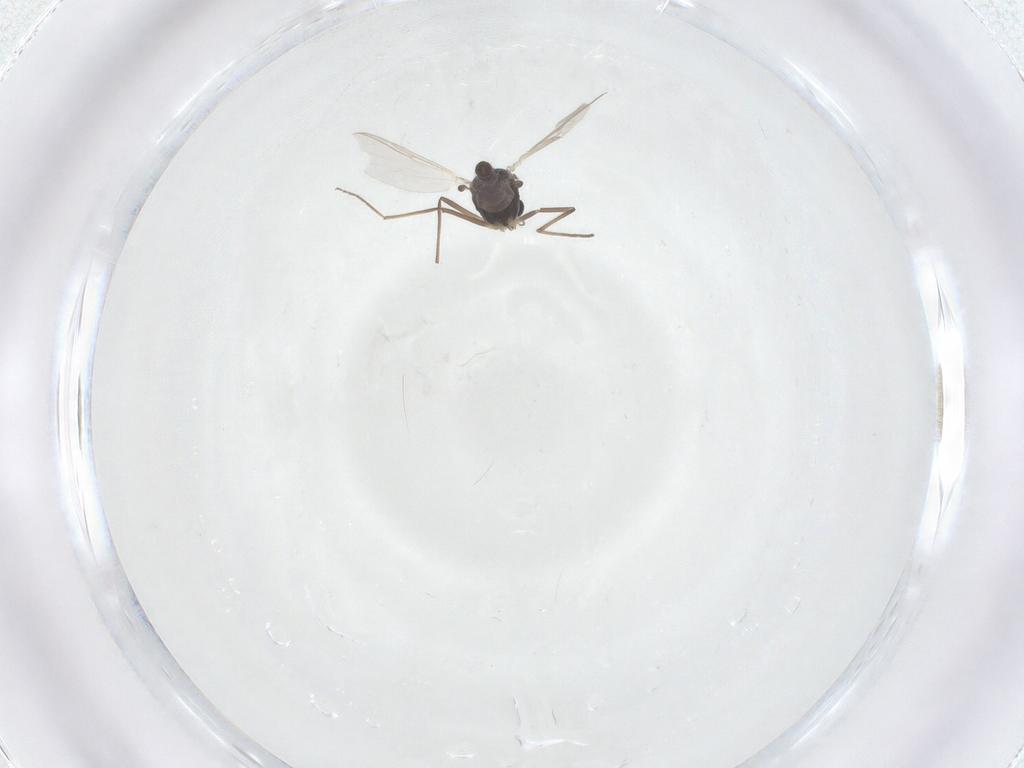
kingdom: Animalia
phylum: Arthropoda
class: Insecta
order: Diptera
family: Chironomidae
